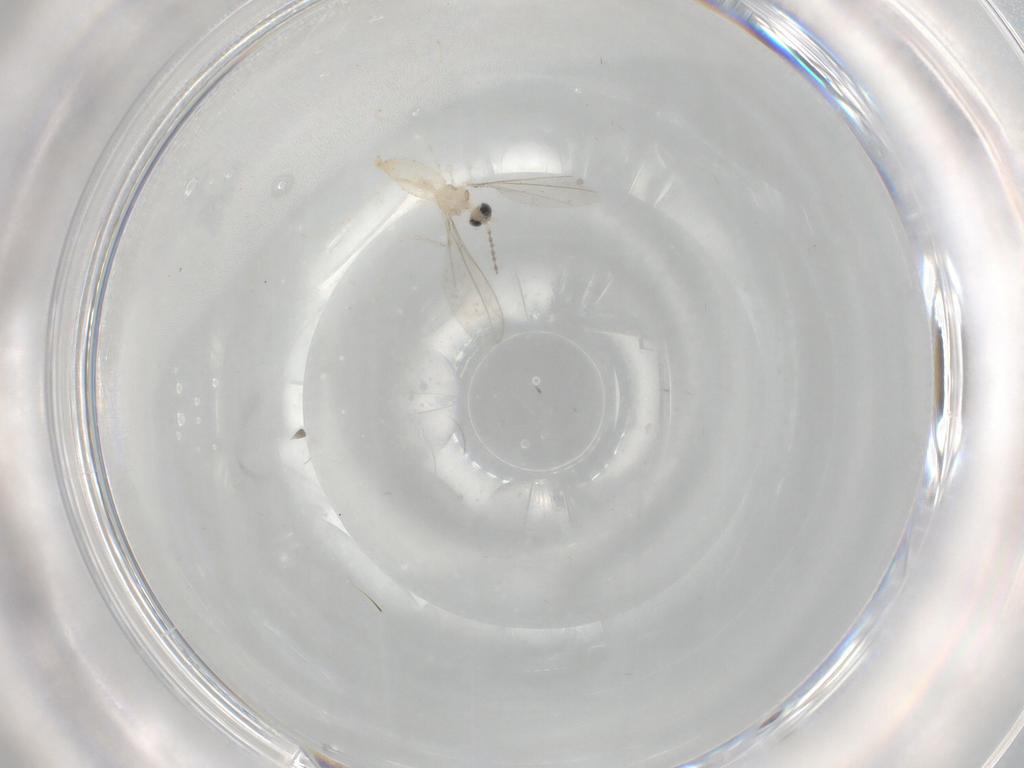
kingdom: Animalia
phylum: Arthropoda
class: Insecta
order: Diptera
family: Cecidomyiidae
